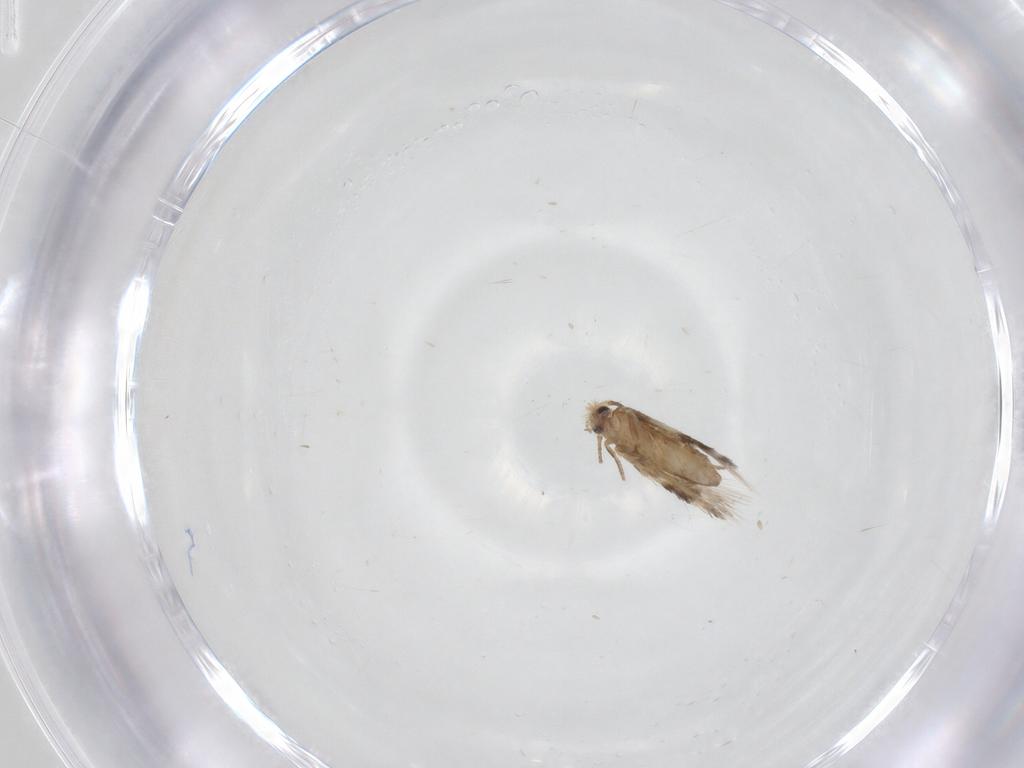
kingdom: Animalia
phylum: Arthropoda
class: Insecta
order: Lepidoptera
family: Nepticulidae
